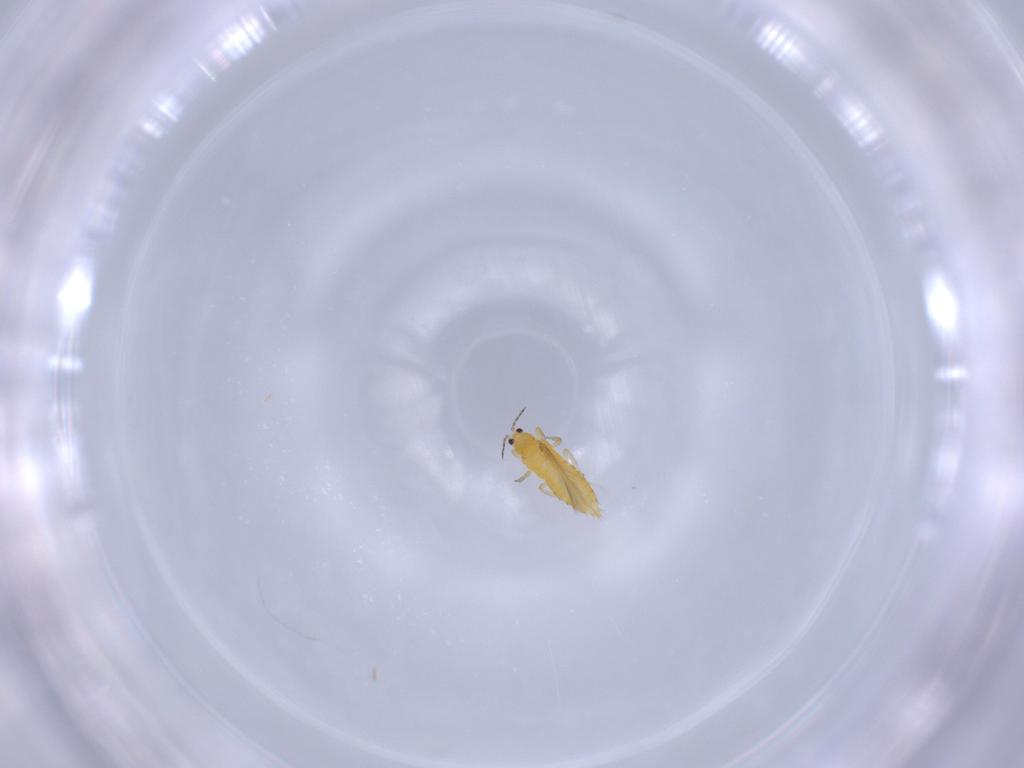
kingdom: Animalia
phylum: Arthropoda
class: Insecta
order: Thysanoptera
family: Thripidae
